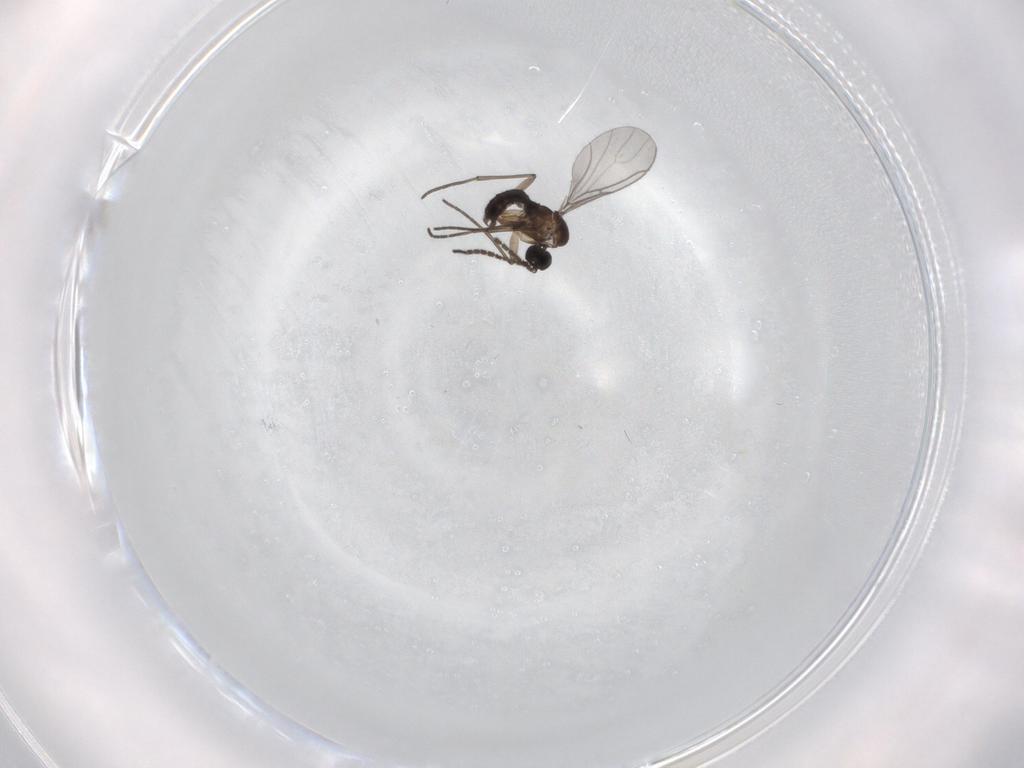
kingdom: Animalia
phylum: Arthropoda
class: Insecta
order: Diptera
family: Sciaridae
